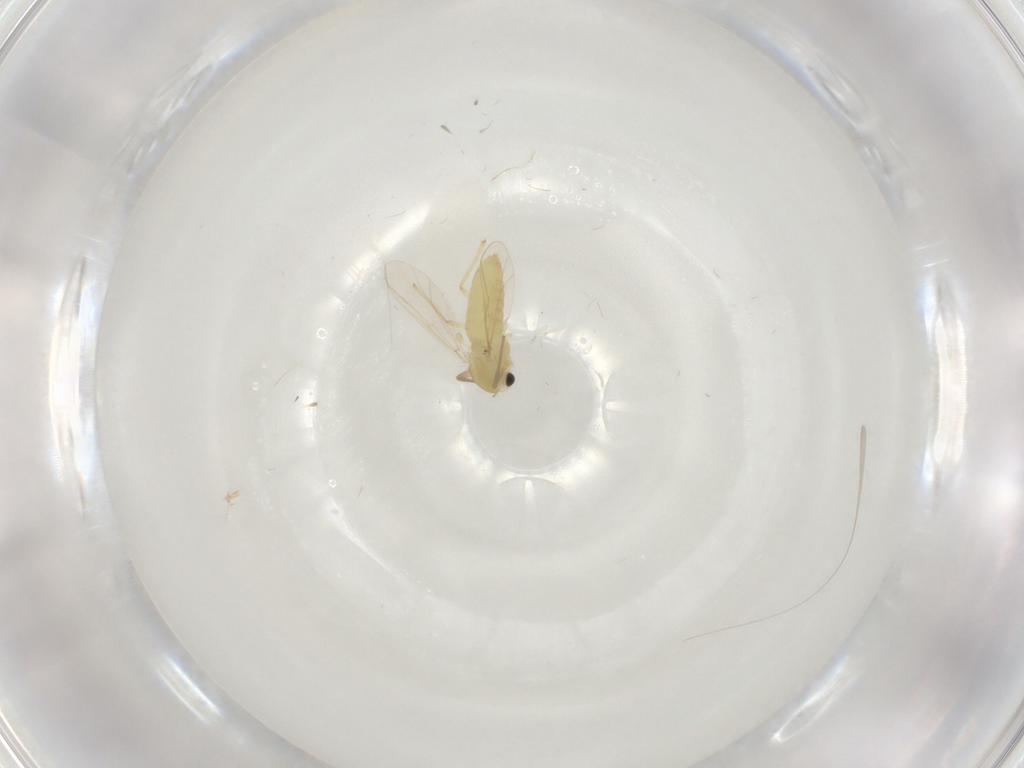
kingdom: Animalia
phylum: Arthropoda
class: Insecta
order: Diptera
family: Chironomidae
